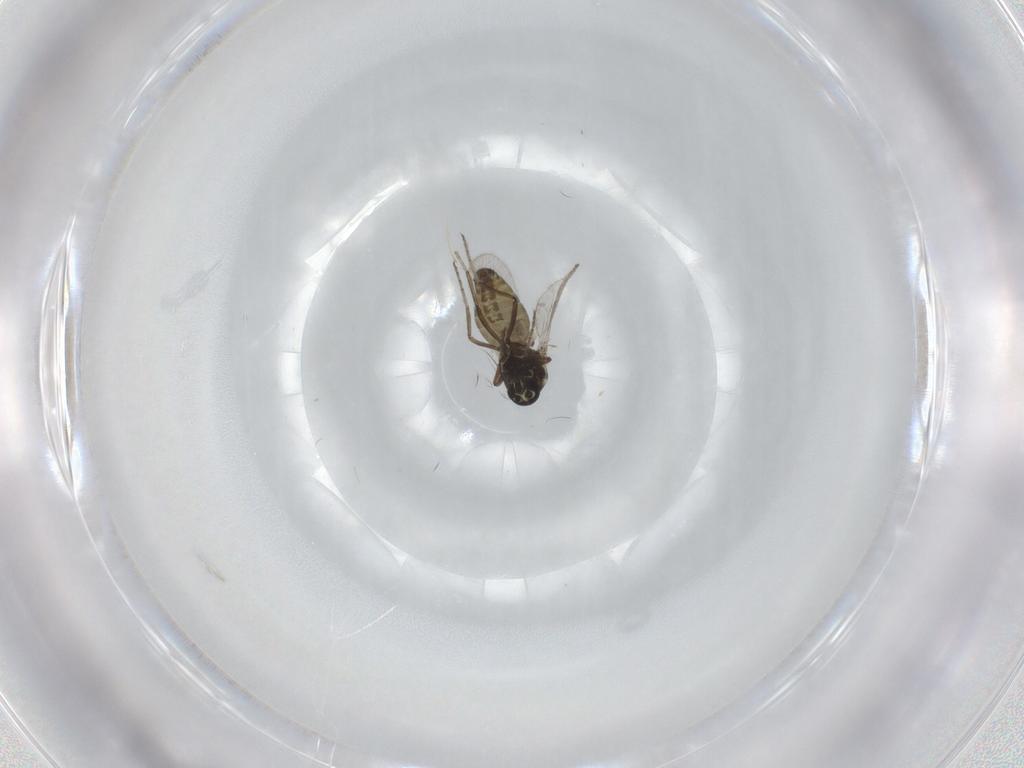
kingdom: Animalia
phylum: Arthropoda
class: Insecta
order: Diptera
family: Ceratopogonidae
